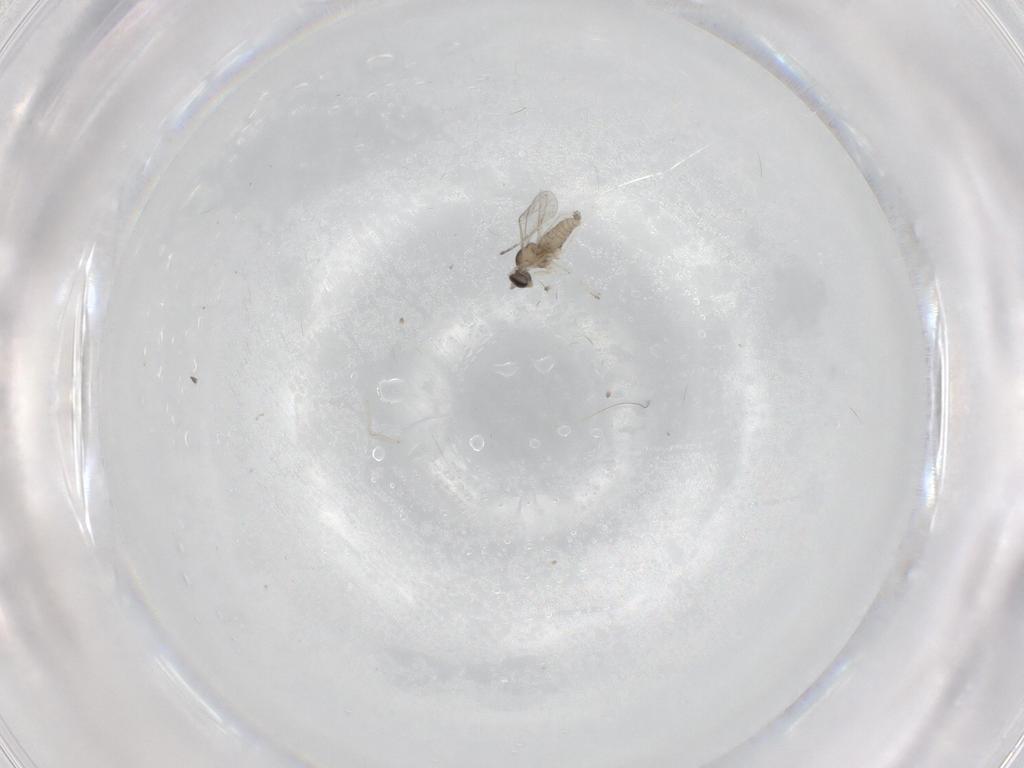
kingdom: Animalia
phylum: Arthropoda
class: Insecta
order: Diptera
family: Cecidomyiidae
